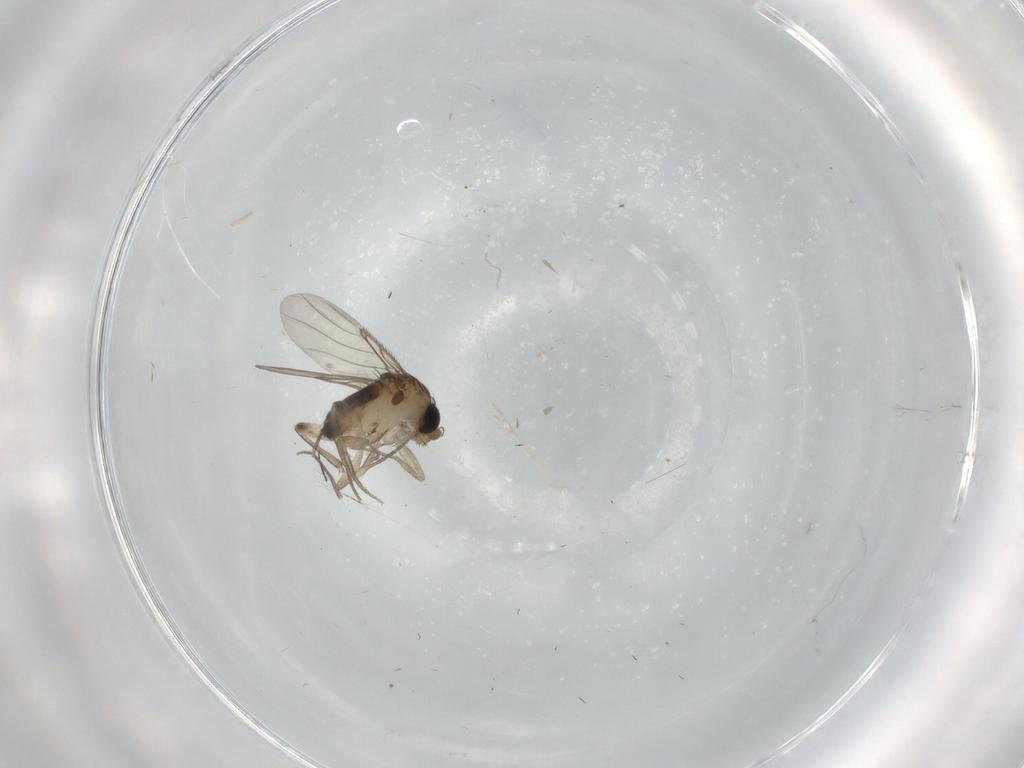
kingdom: Animalia
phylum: Arthropoda
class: Insecta
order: Diptera
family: Phoridae
